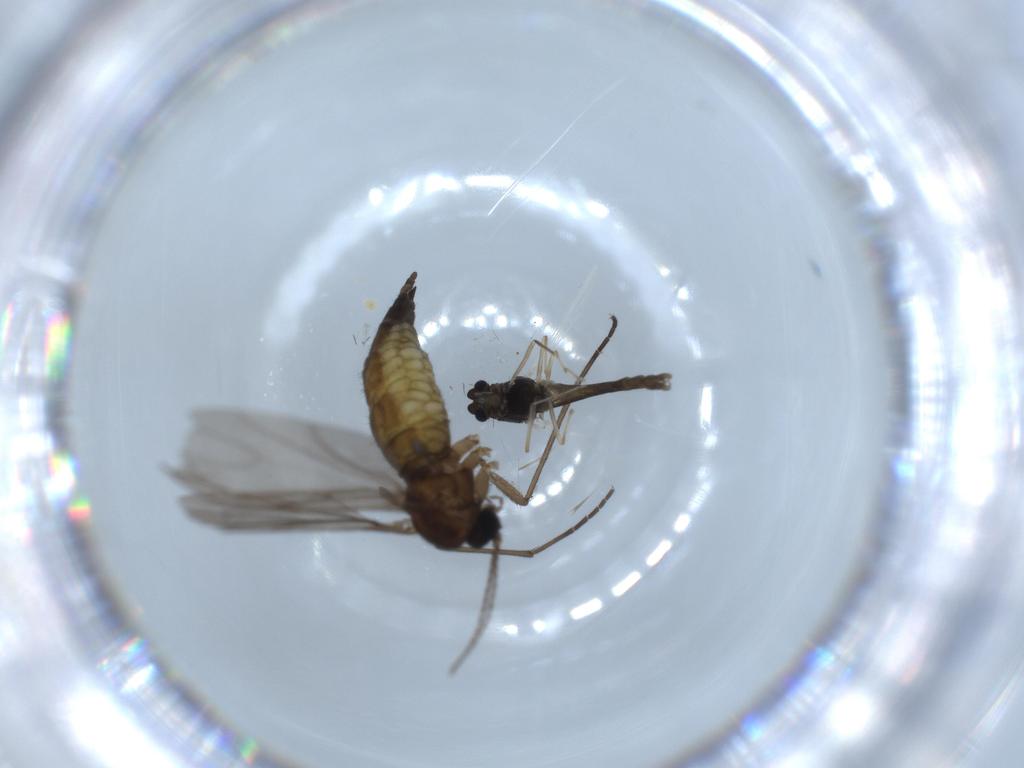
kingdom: Animalia
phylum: Arthropoda
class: Insecta
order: Diptera
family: Chironomidae
